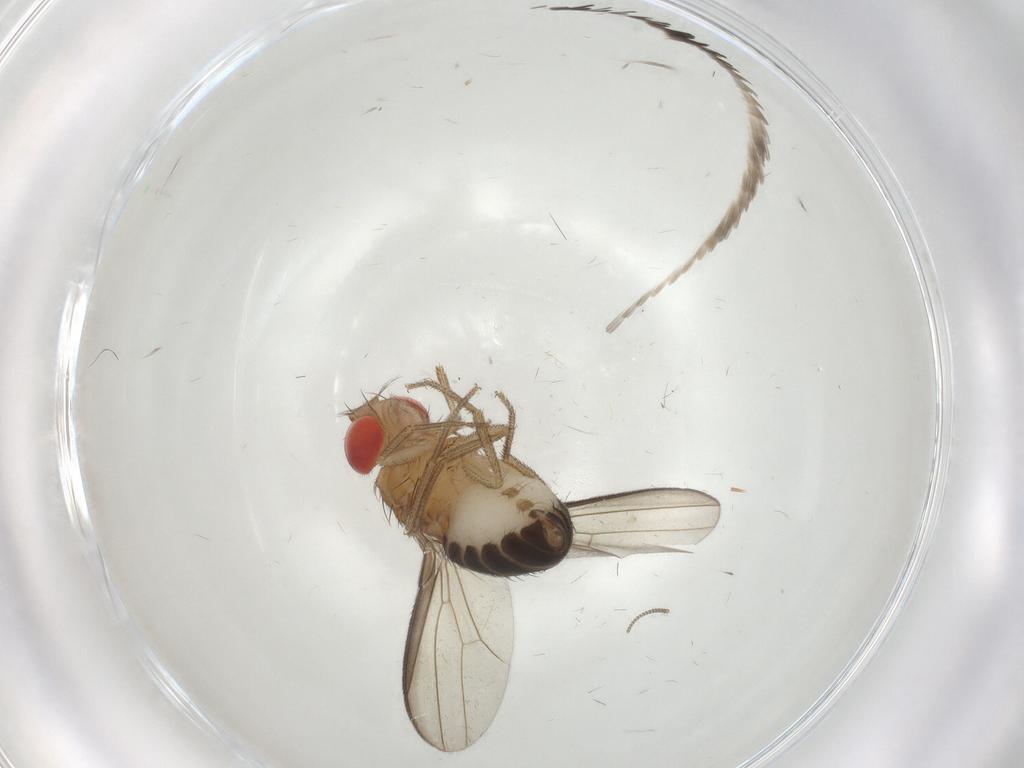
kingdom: Animalia
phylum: Arthropoda
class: Insecta
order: Diptera
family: Drosophilidae
